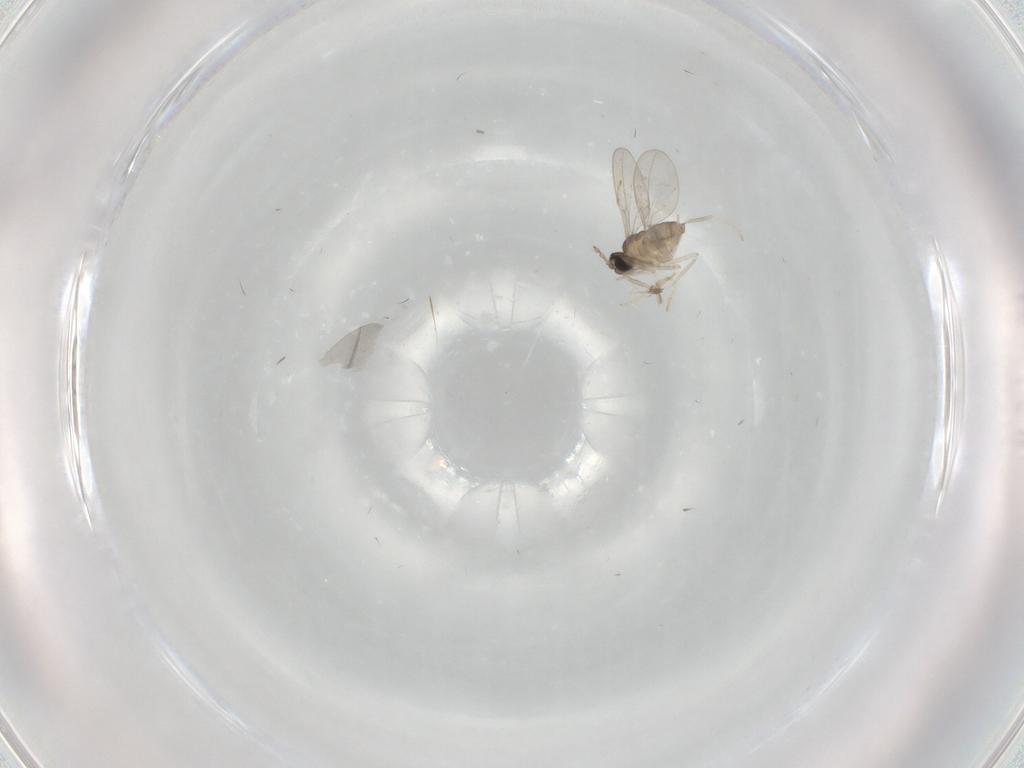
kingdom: Animalia
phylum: Arthropoda
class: Insecta
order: Diptera
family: Cecidomyiidae
